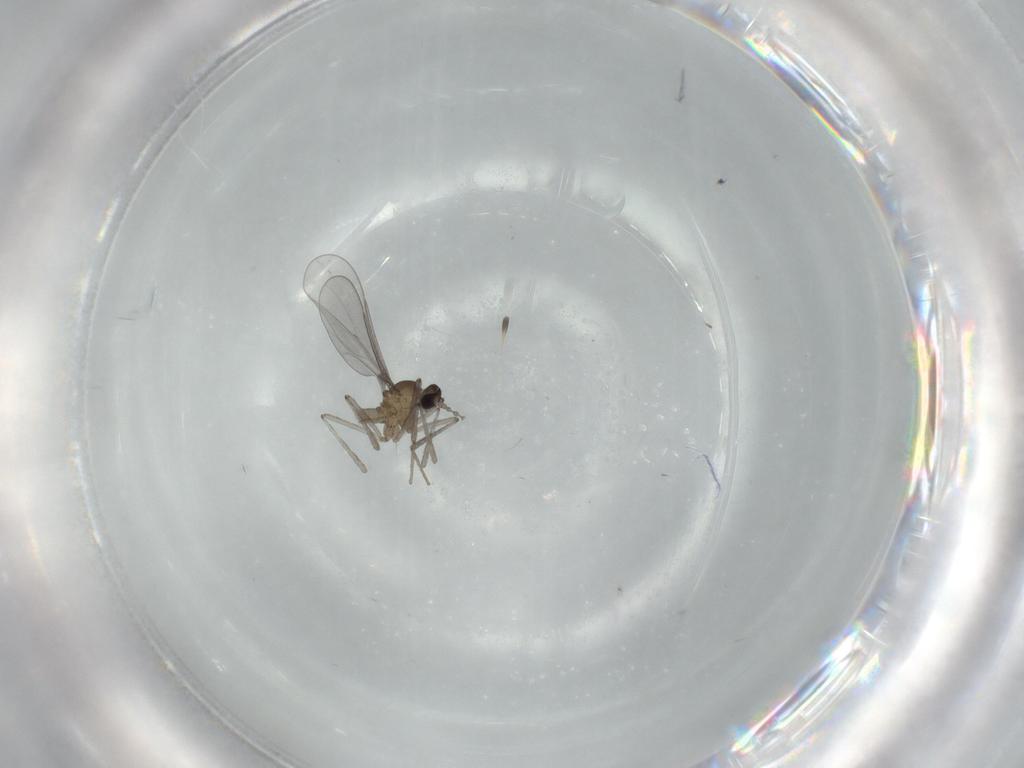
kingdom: Animalia
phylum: Arthropoda
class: Insecta
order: Diptera
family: Cecidomyiidae
